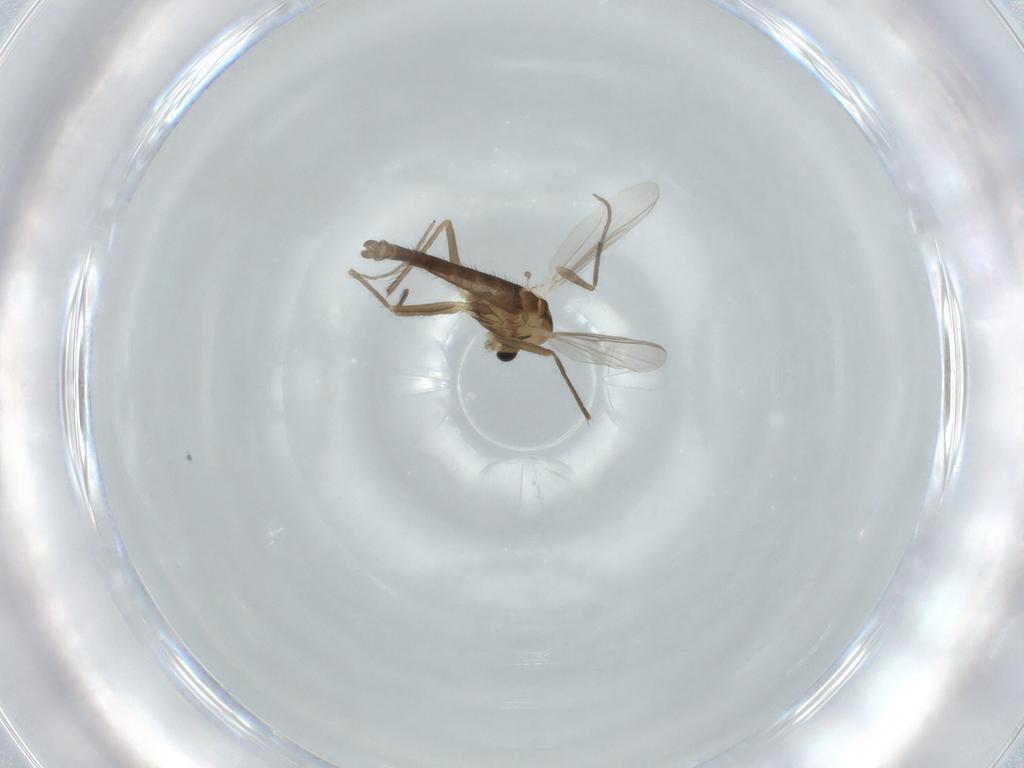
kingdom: Animalia
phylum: Arthropoda
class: Insecta
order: Diptera
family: Chironomidae
